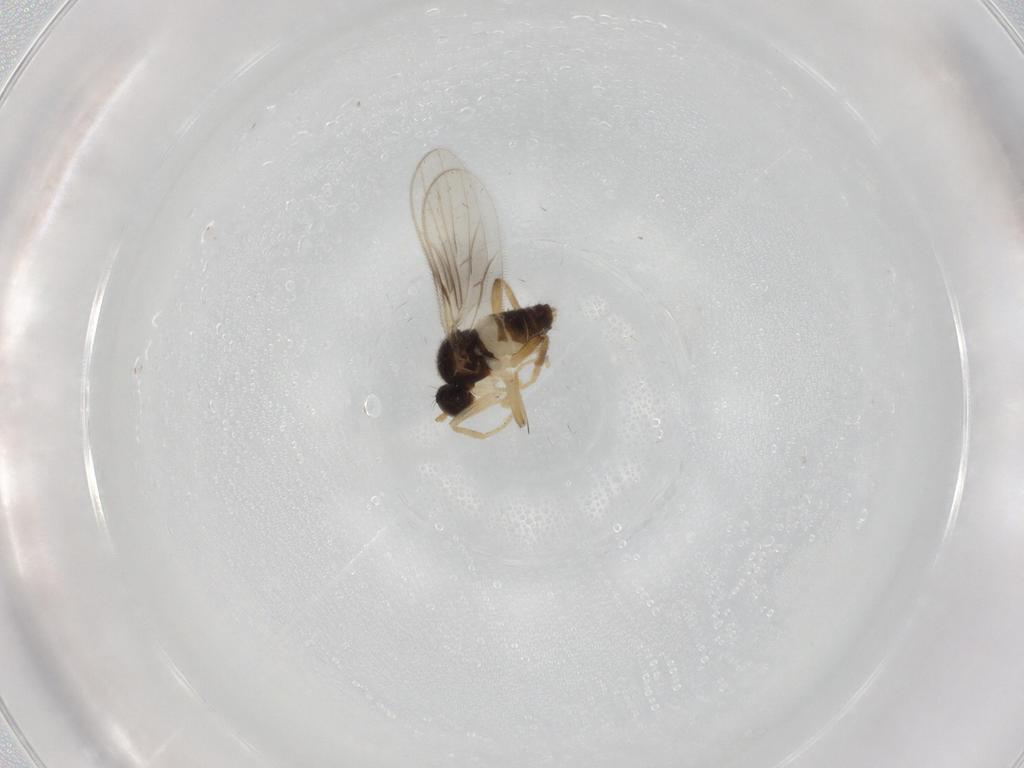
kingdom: Animalia
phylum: Arthropoda
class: Insecta
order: Diptera
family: Hybotidae
